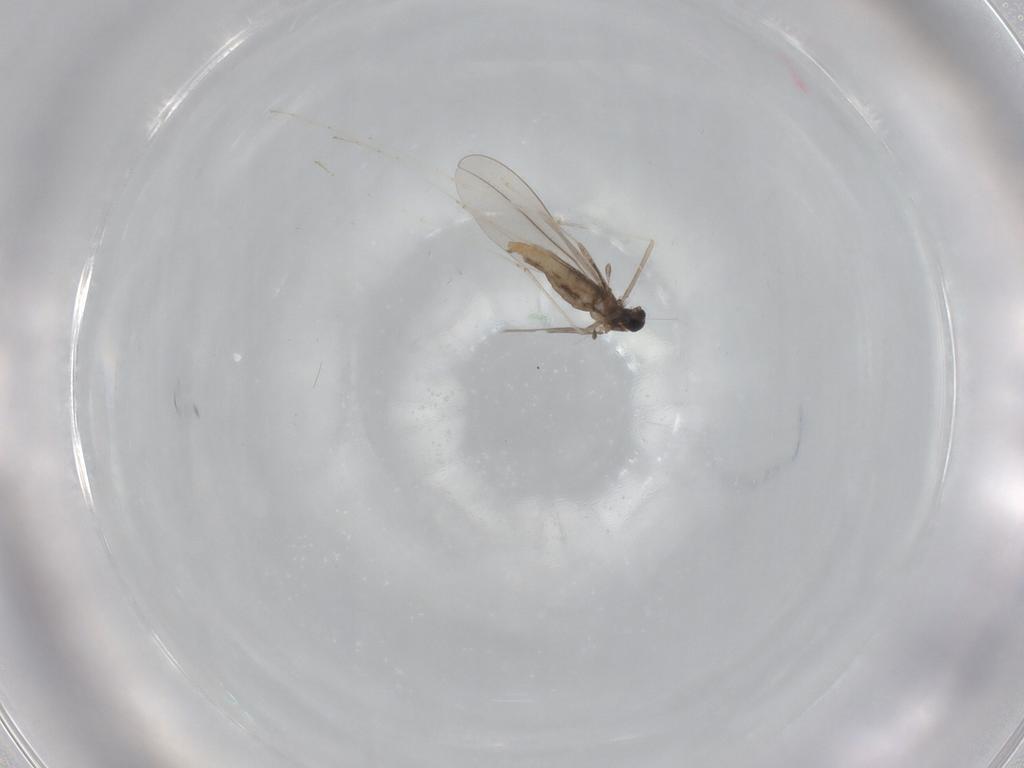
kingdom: Animalia
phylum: Arthropoda
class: Insecta
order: Diptera
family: Cecidomyiidae
